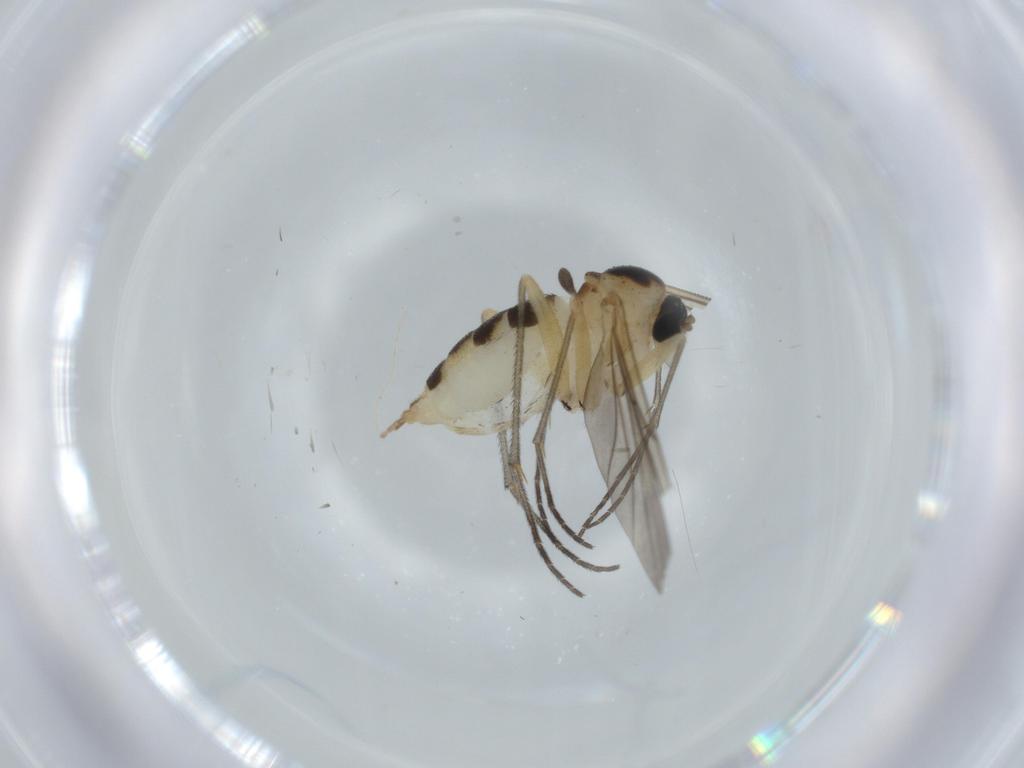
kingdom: Animalia
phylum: Arthropoda
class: Insecta
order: Diptera
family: Sciaridae
